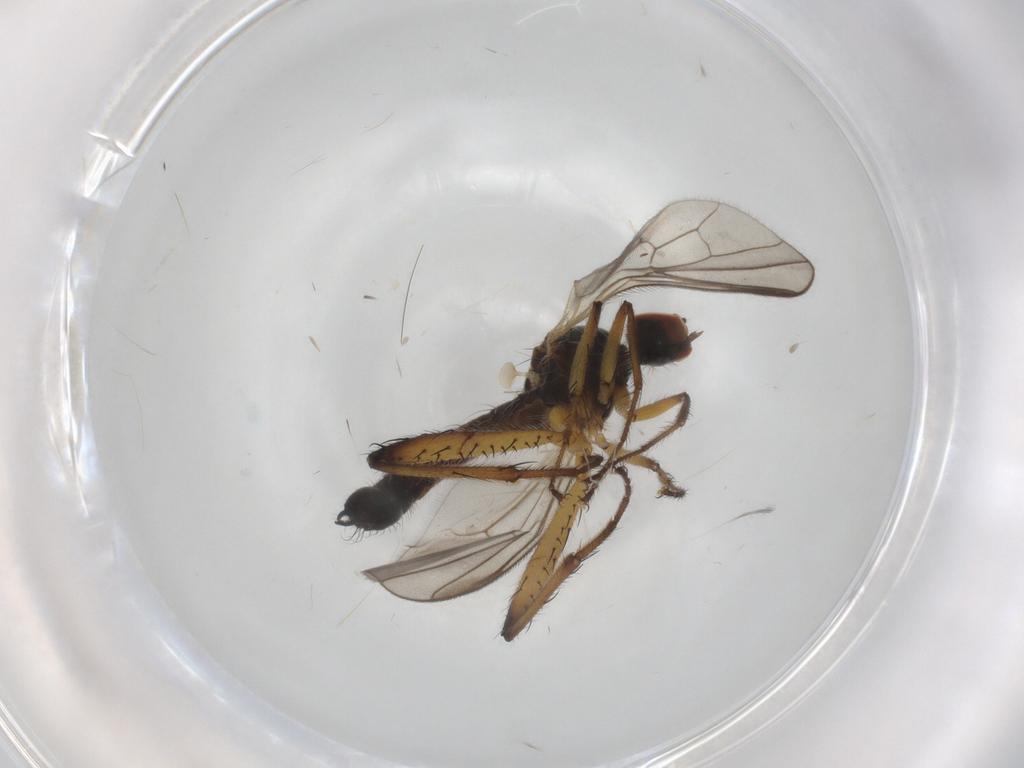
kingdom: Animalia
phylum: Arthropoda
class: Insecta
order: Diptera
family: Hybotidae
